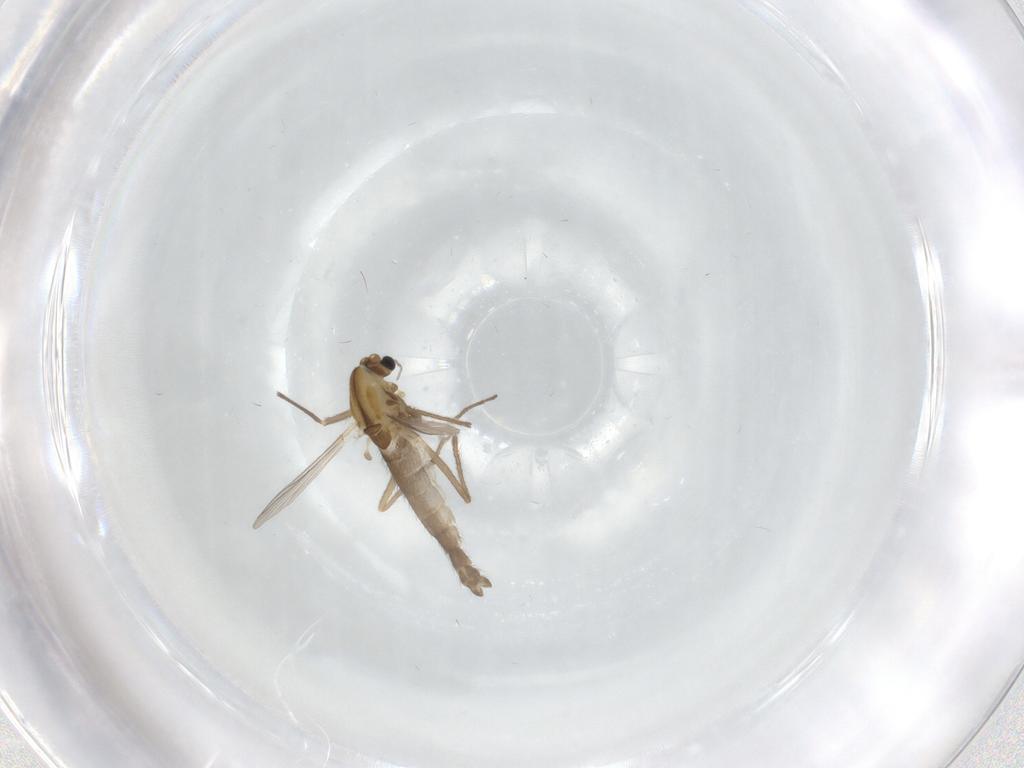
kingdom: Animalia
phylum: Arthropoda
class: Insecta
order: Diptera
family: Chironomidae
